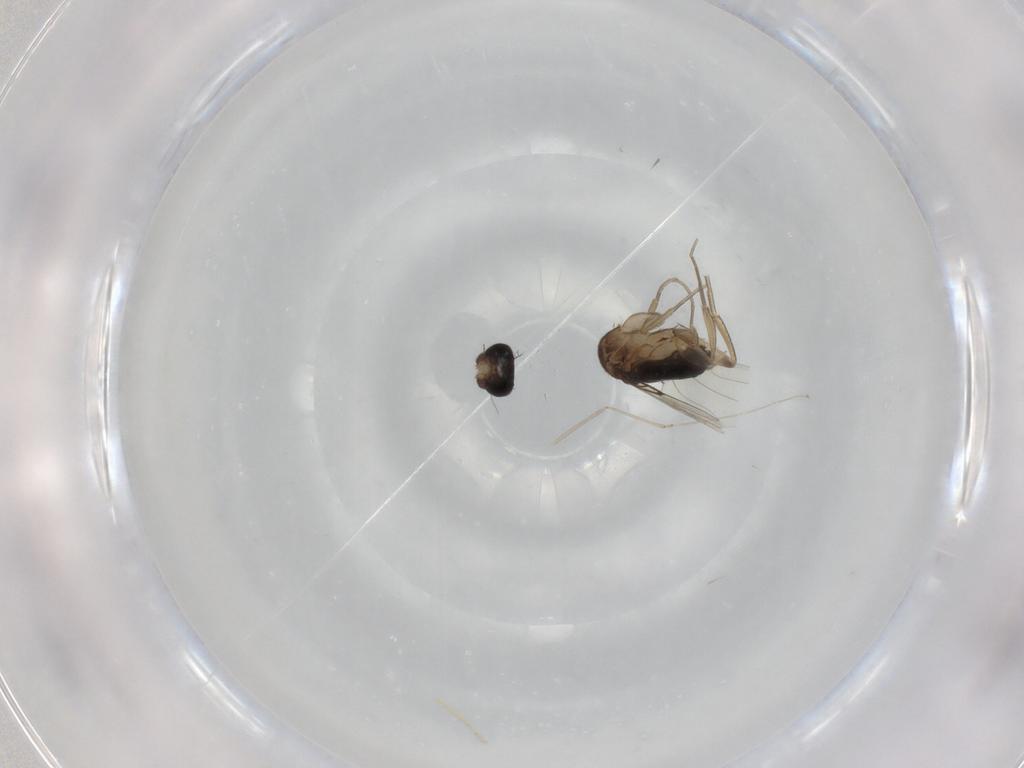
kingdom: Animalia
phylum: Arthropoda
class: Insecta
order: Diptera
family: Phoridae
